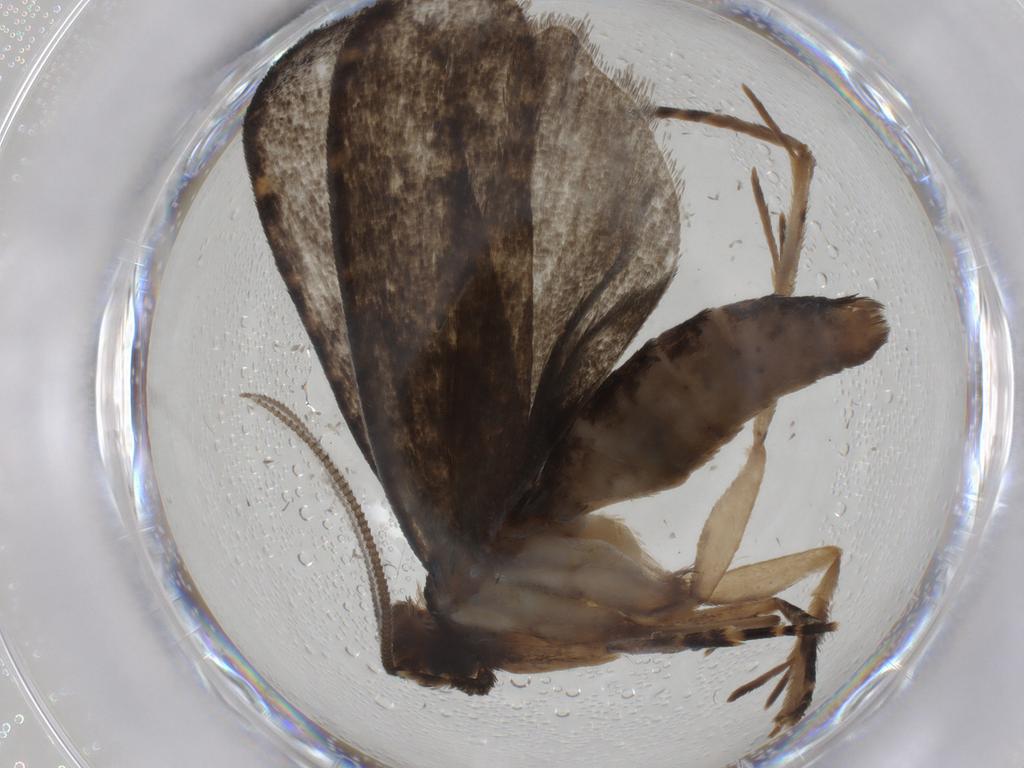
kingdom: Animalia
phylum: Arthropoda
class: Insecta
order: Lepidoptera
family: Tineidae
